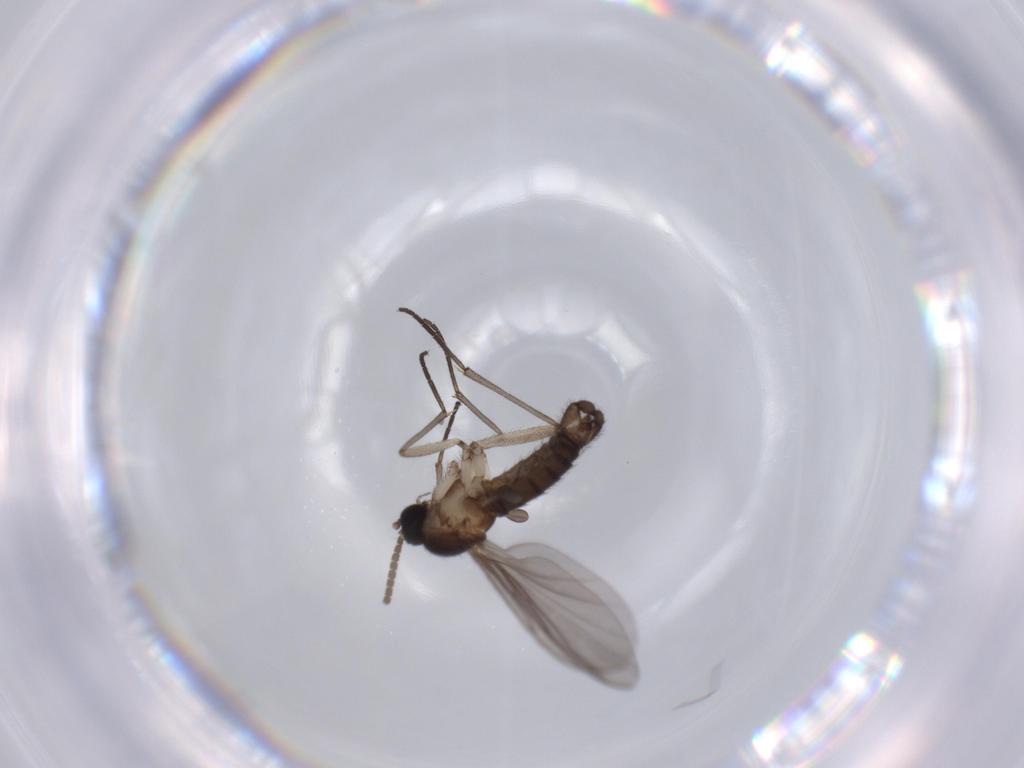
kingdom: Animalia
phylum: Arthropoda
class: Insecta
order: Diptera
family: Sciaridae
